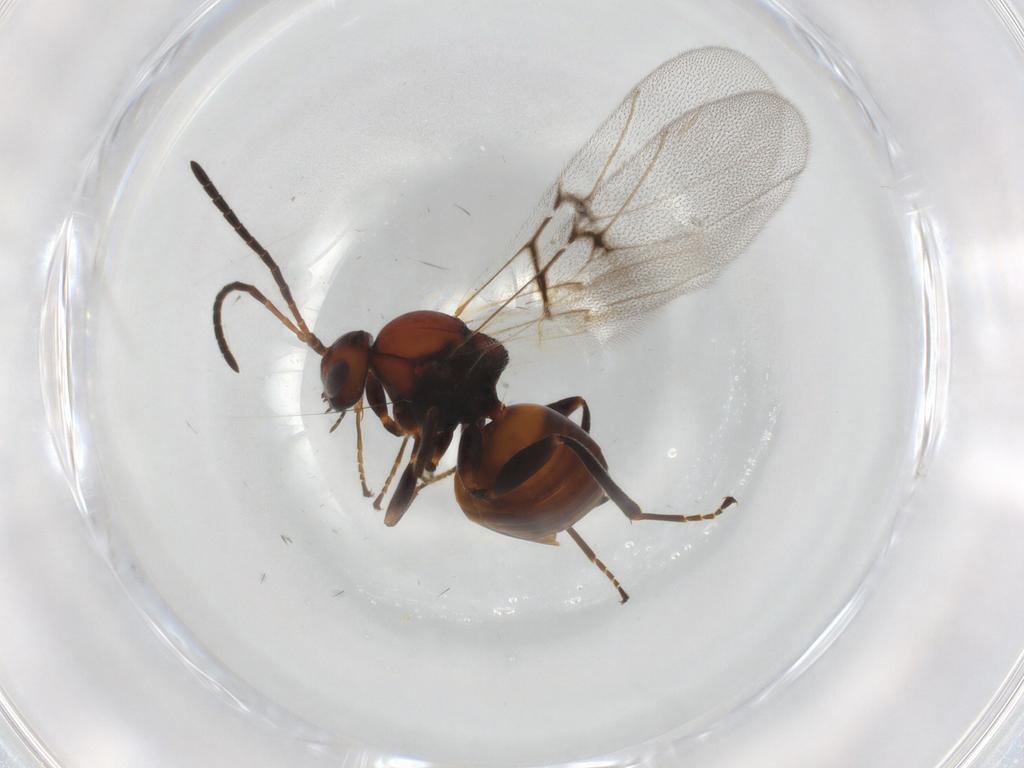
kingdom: Animalia
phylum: Arthropoda
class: Insecta
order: Hymenoptera
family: Cynipidae
